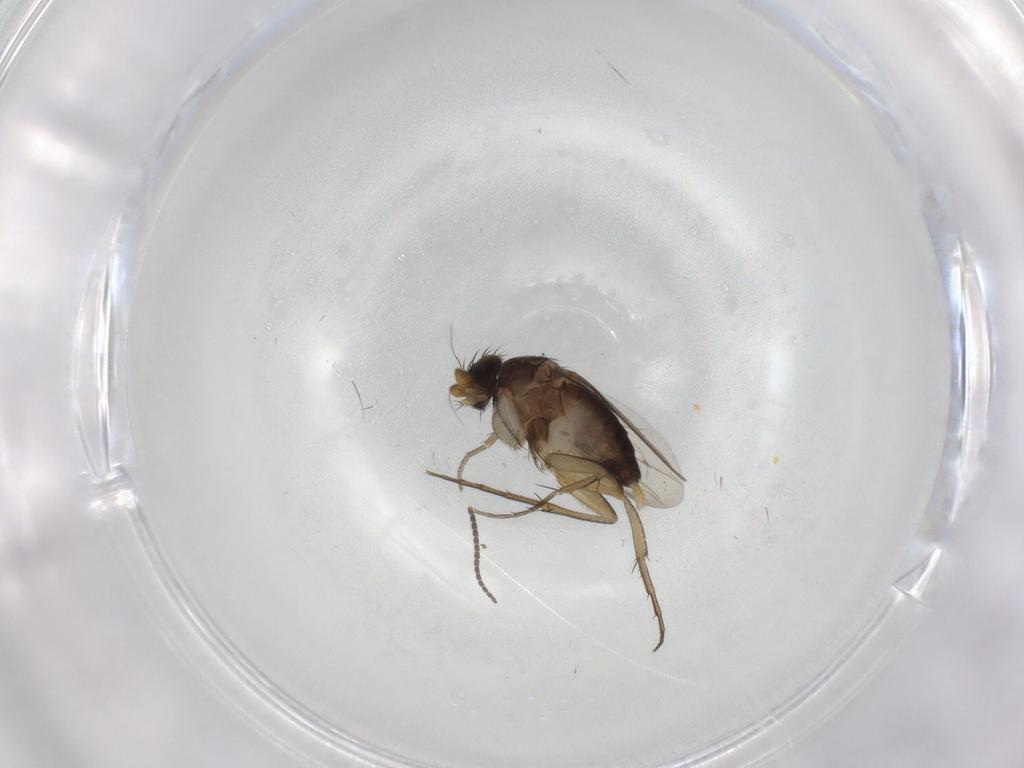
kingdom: Animalia
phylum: Arthropoda
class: Insecta
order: Diptera
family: Phoridae
